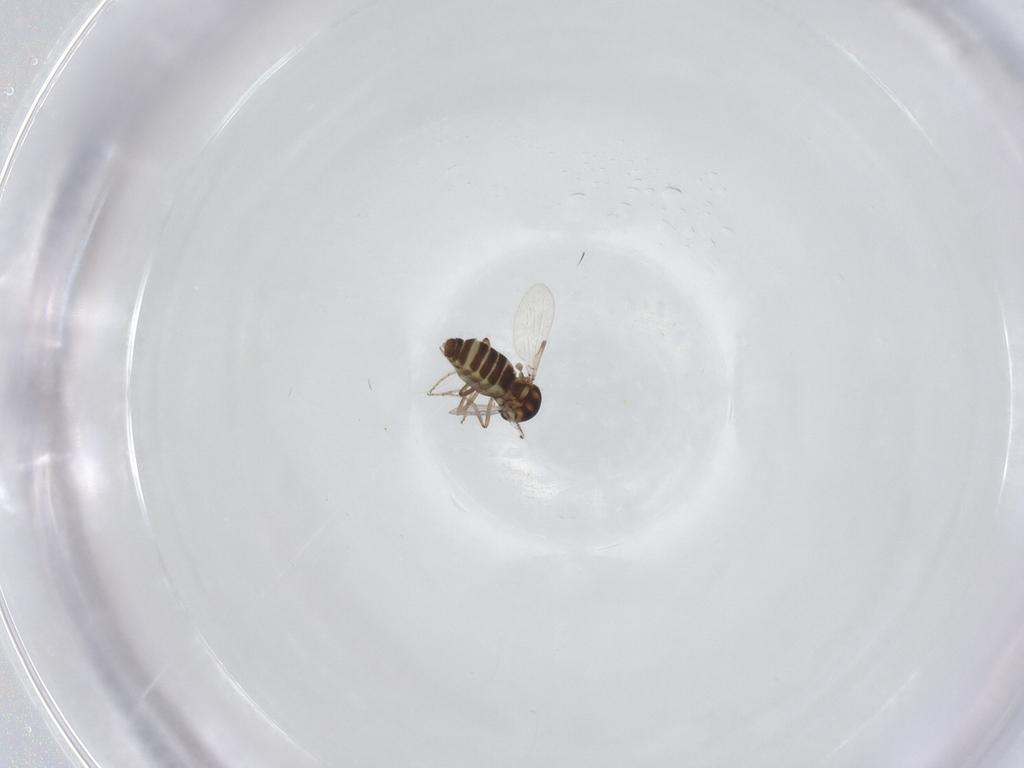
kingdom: Animalia
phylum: Arthropoda
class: Insecta
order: Diptera
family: Ceratopogonidae
